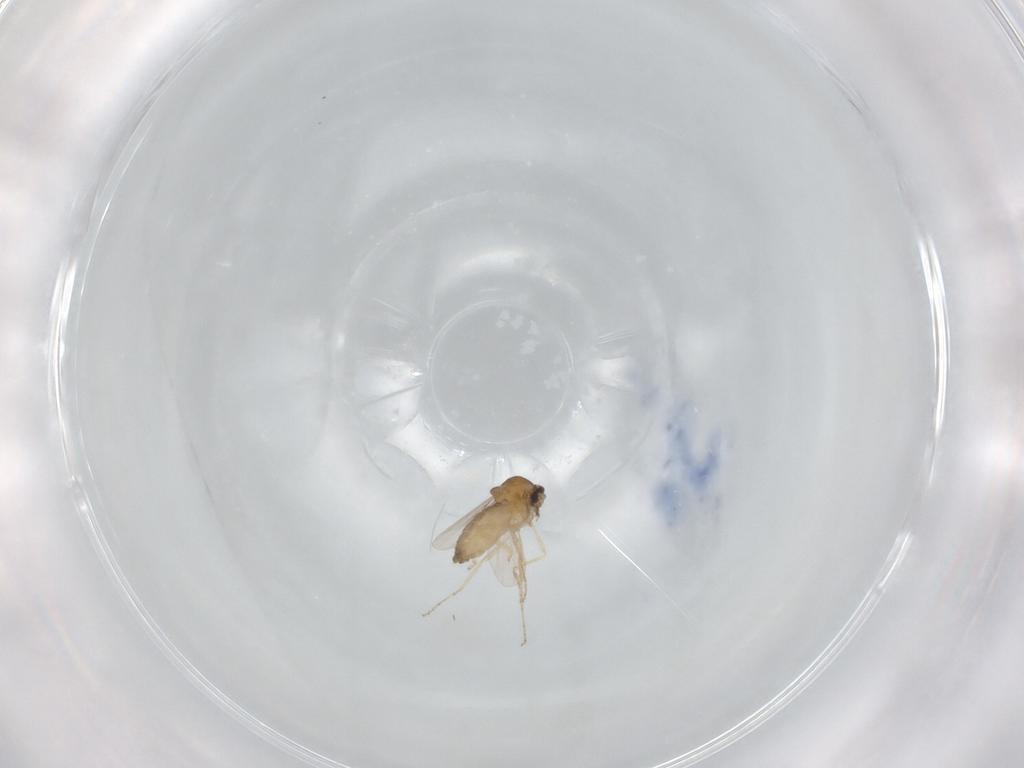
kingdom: Animalia
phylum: Arthropoda
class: Insecta
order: Diptera
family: Ceratopogonidae
